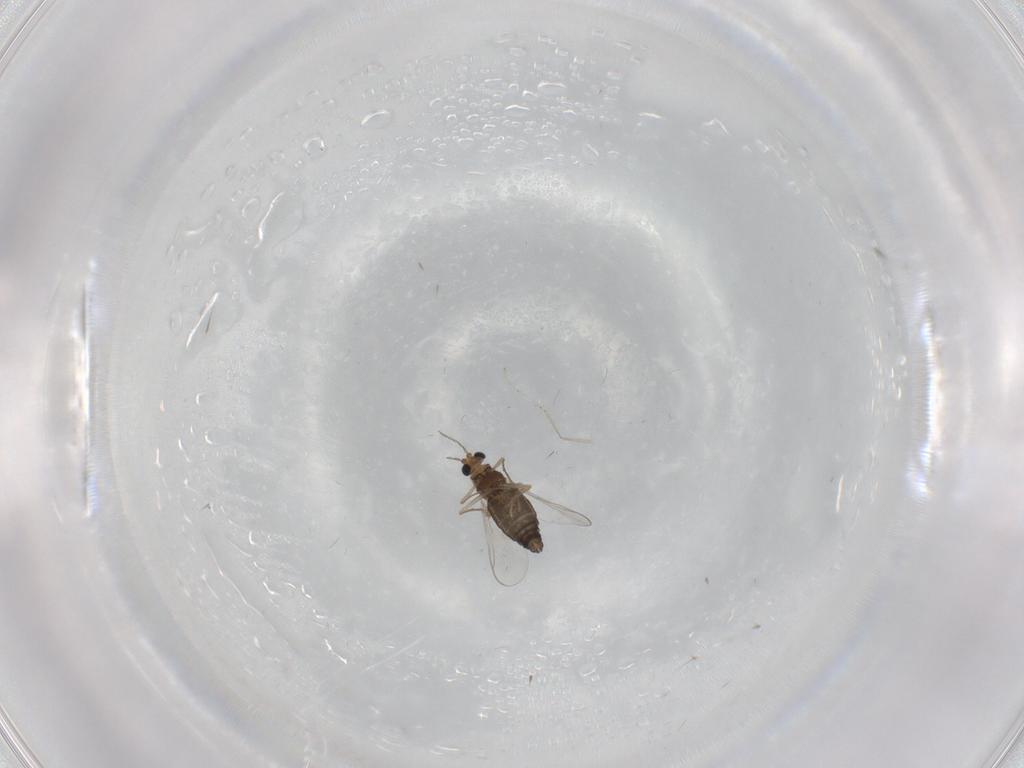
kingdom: Animalia
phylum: Arthropoda
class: Insecta
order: Diptera
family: Chironomidae
